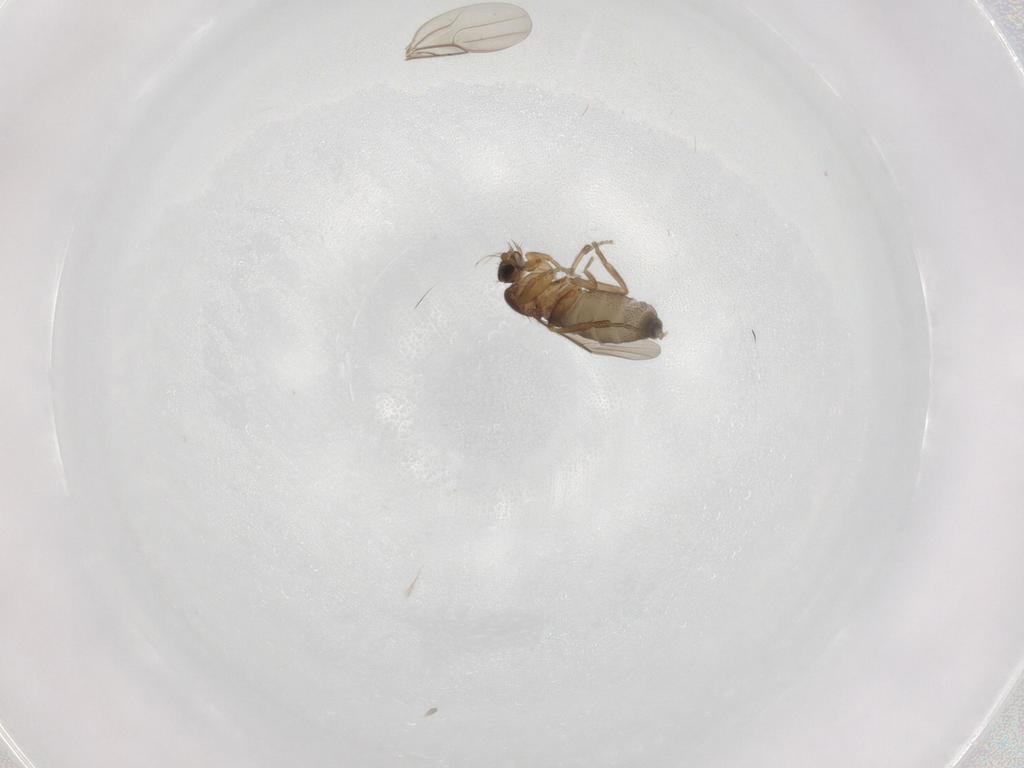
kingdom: Animalia
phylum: Arthropoda
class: Insecta
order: Diptera
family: Phoridae
